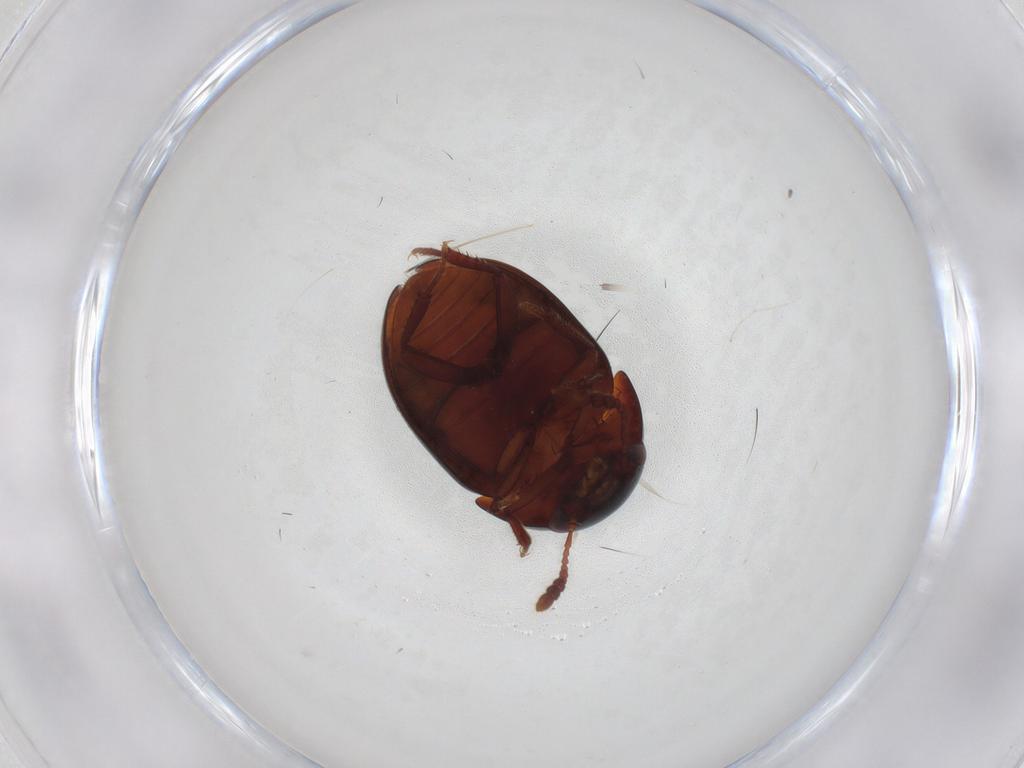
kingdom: Animalia
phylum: Arthropoda
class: Insecta
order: Coleoptera
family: Leiodidae
